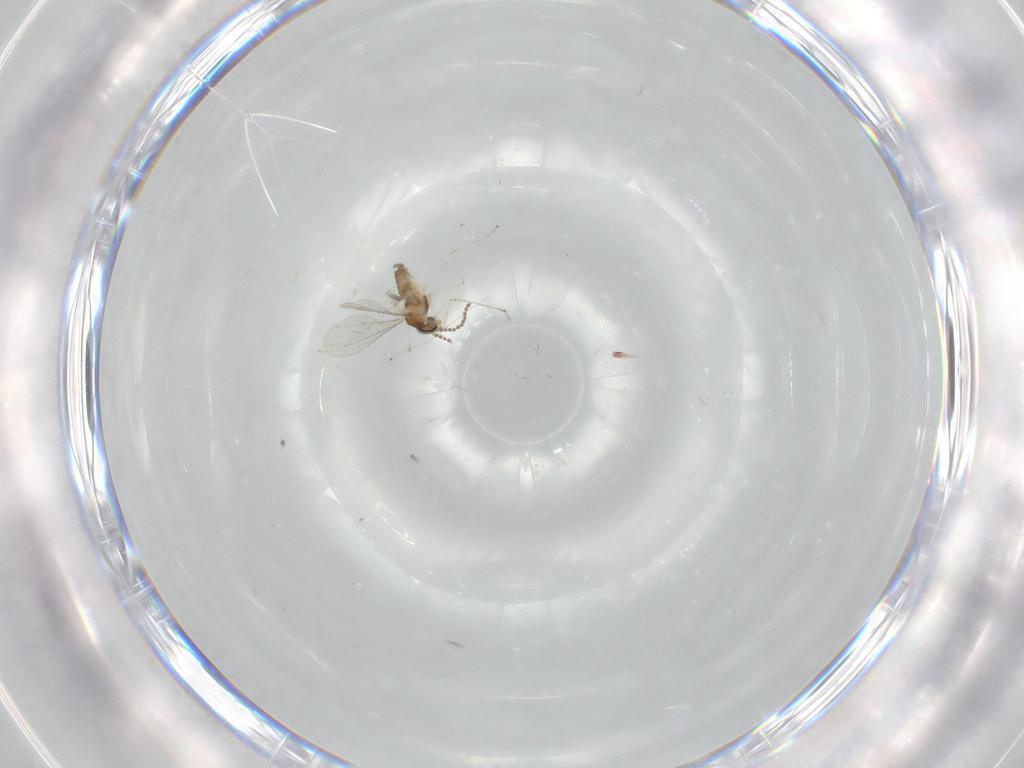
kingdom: Animalia
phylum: Arthropoda
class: Insecta
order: Diptera
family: Cecidomyiidae
